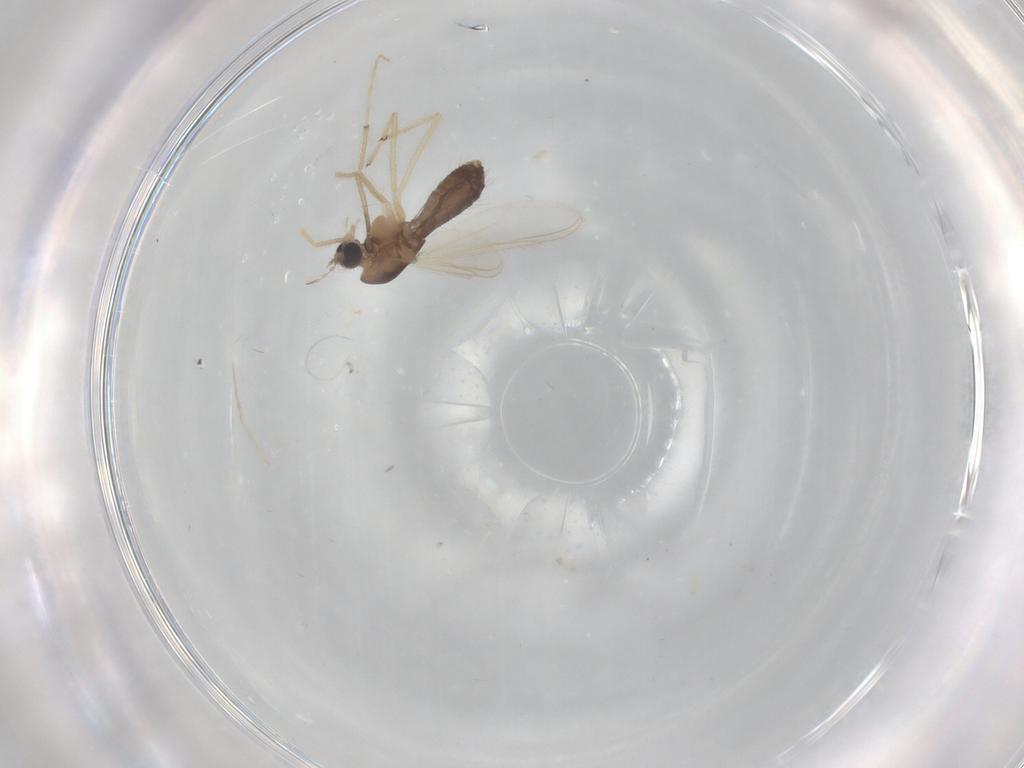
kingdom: Animalia
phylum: Arthropoda
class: Insecta
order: Diptera
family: Chironomidae
